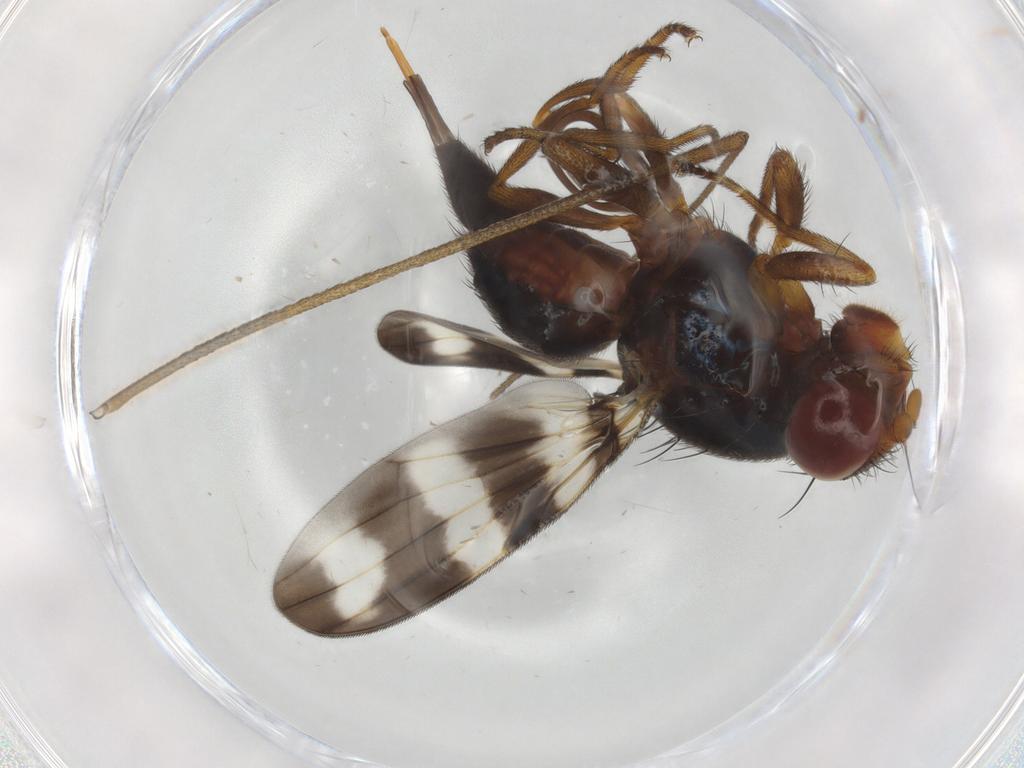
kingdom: Animalia
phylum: Arthropoda
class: Insecta
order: Diptera
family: Ulidiidae
